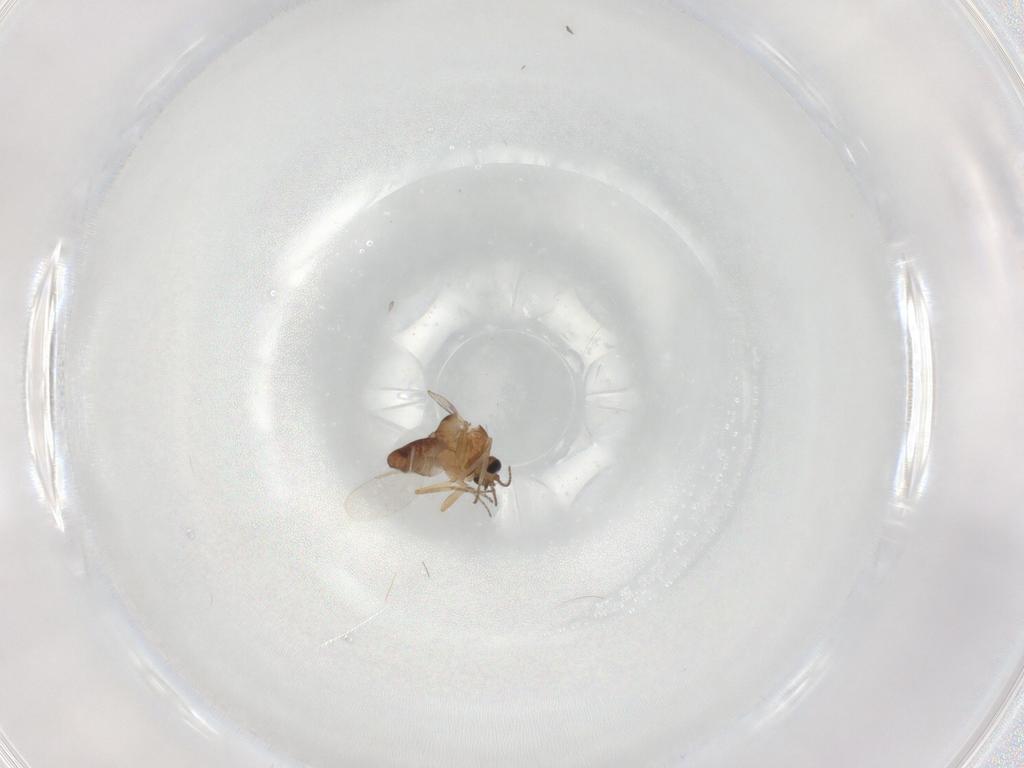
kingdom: Animalia
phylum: Arthropoda
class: Insecta
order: Diptera
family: Ceratopogonidae
